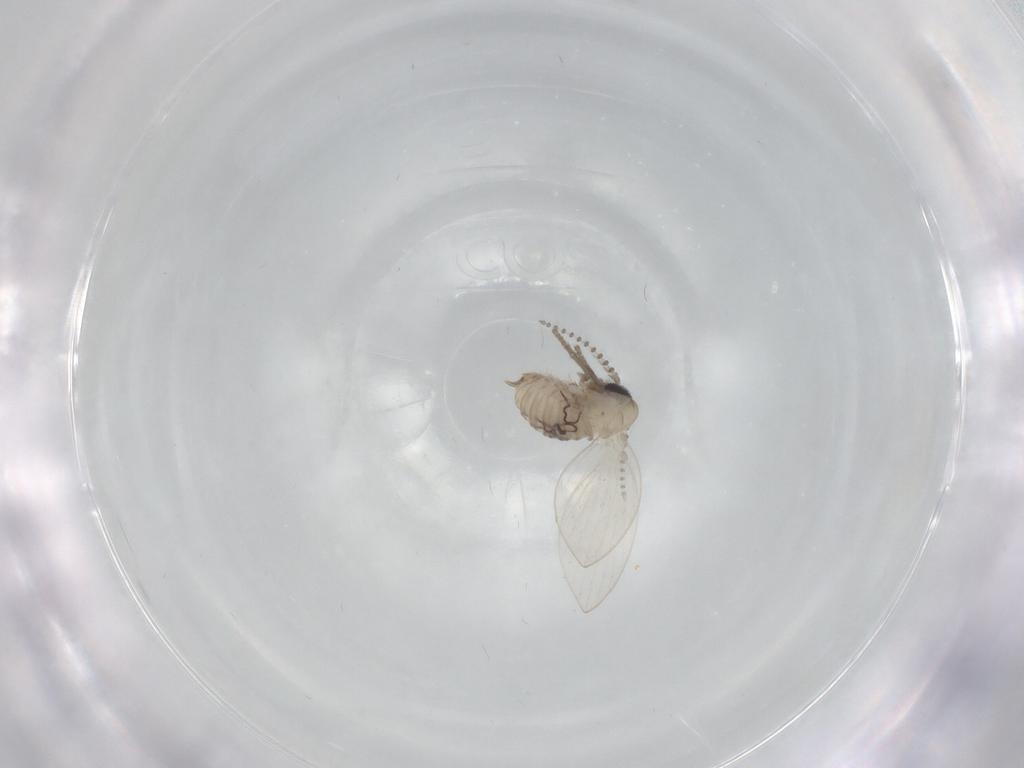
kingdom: Animalia
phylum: Arthropoda
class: Insecta
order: Diptera
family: Psychodidae
